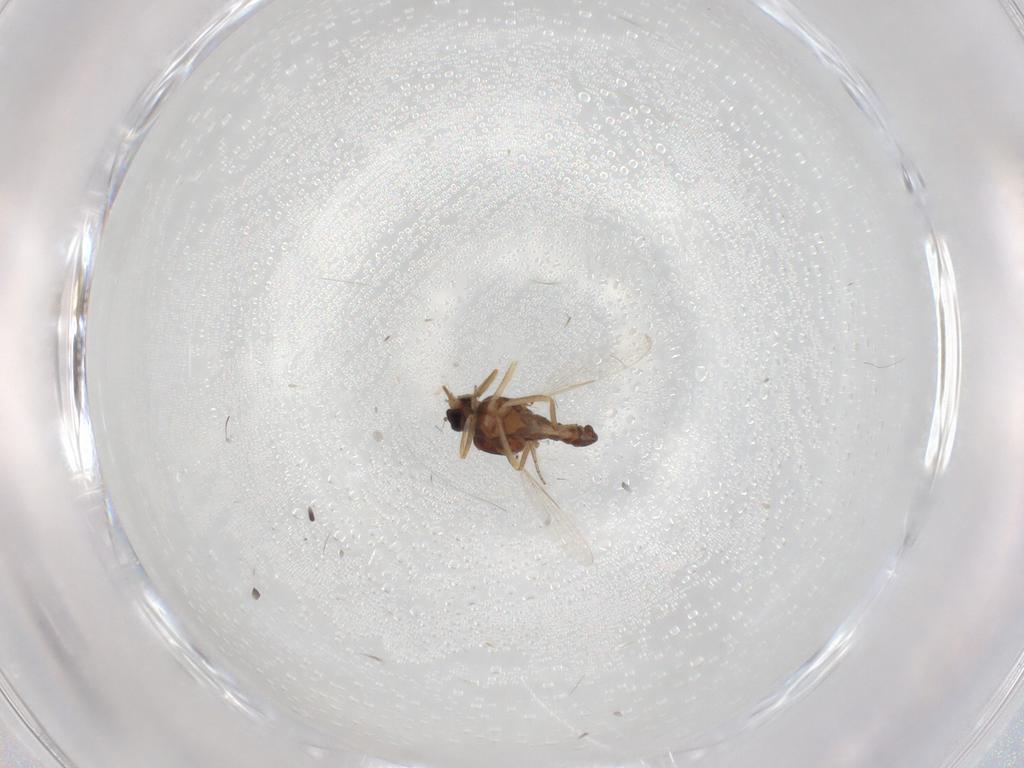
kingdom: Animalia
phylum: Arthropoda
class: Insecta
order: Diptera
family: Ceratopogonidae
